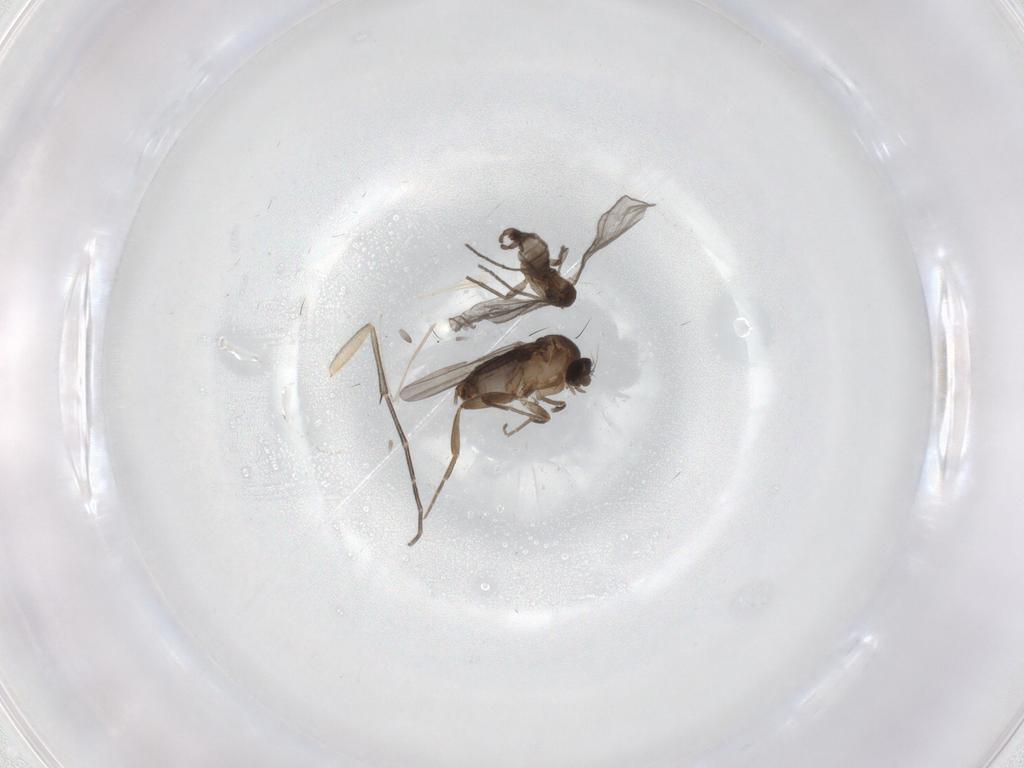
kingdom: Animalia
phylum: Arthropoda
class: Insecta
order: Diptera
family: Phoridae
